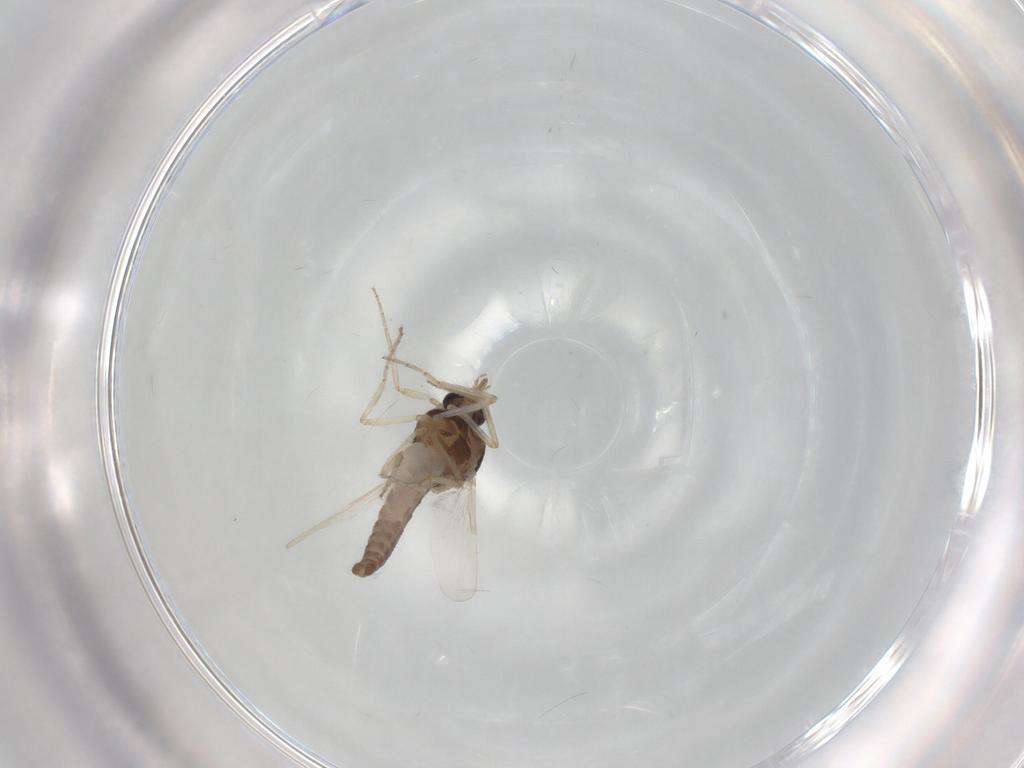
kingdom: Animalia
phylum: Arthropoda
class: Insecta
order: Diptera
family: Ceratopogonidae
